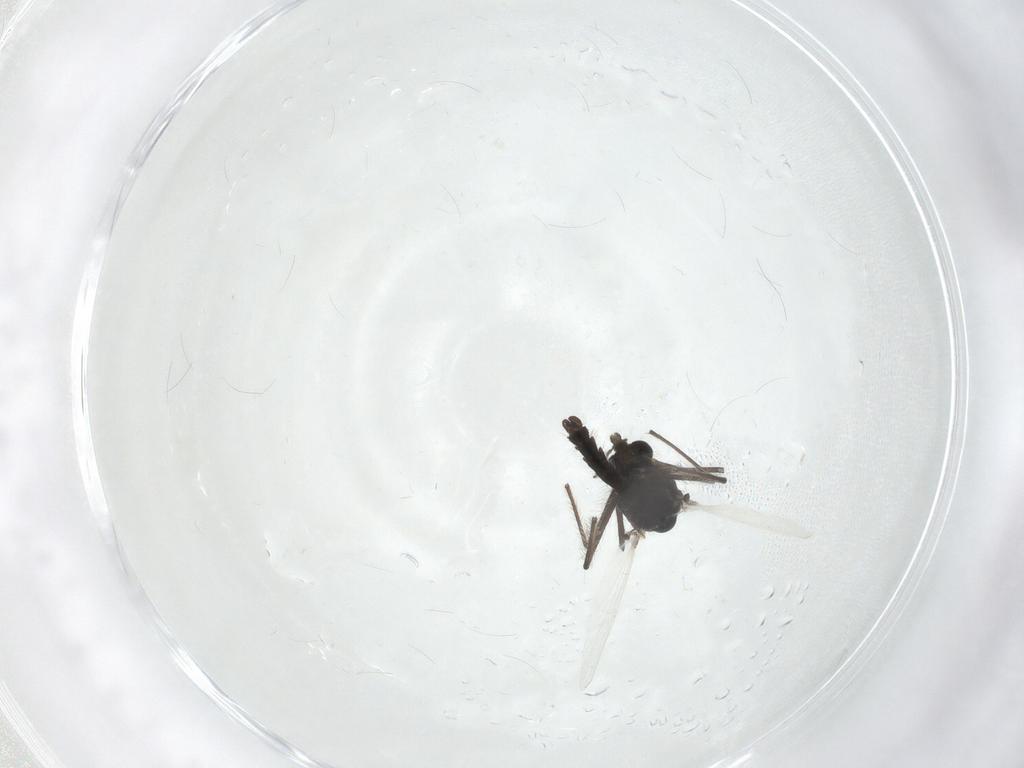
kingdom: Animalia
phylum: Arthropoda
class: Insecta
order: Diptera
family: Chironomidae
